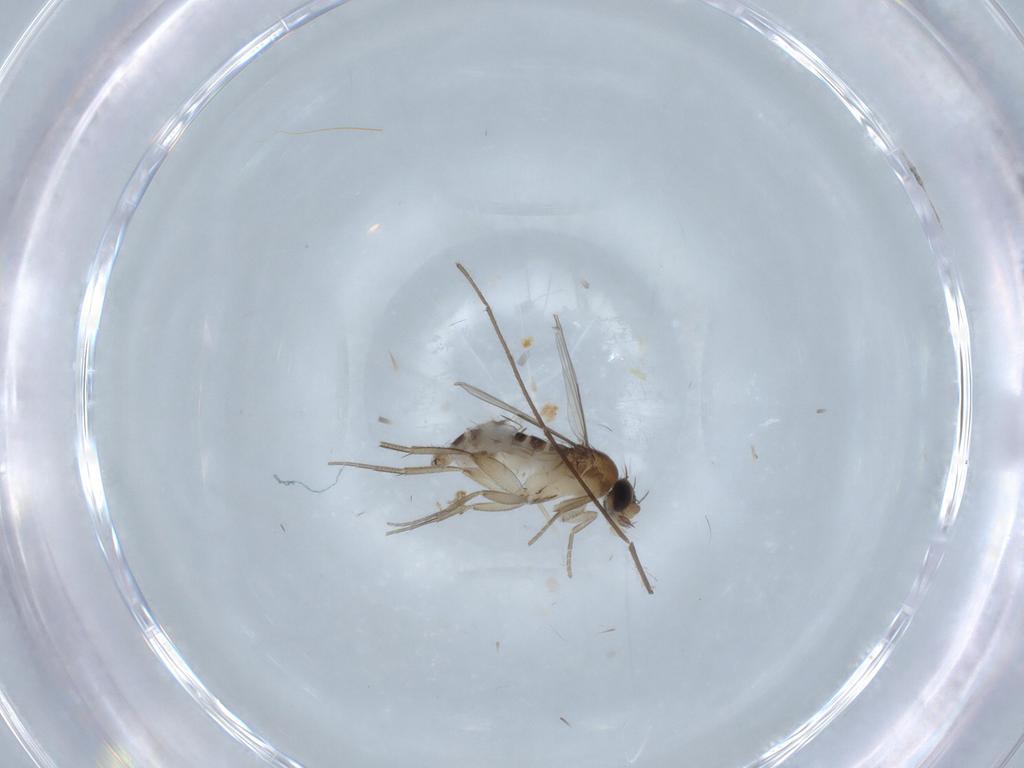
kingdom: Animalia
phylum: Arthropoda
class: Insecta
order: Diptera
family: Phoridae
